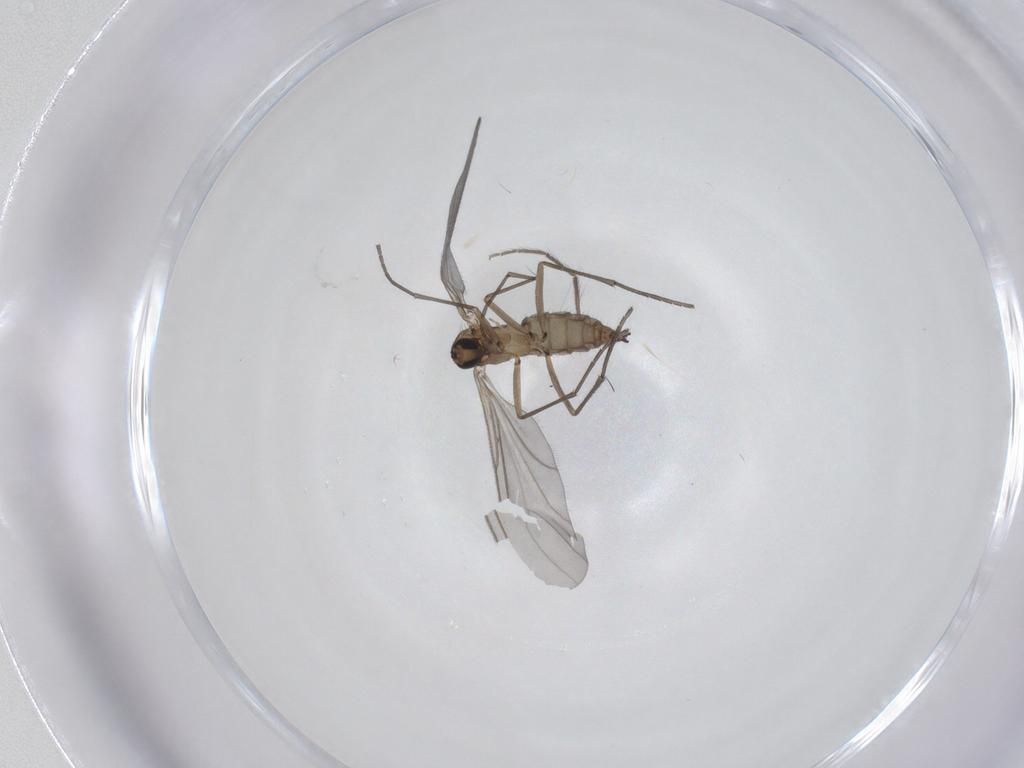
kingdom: Animalia
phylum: Arthropoda
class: Insecta
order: Diptera
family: Sciaridae
